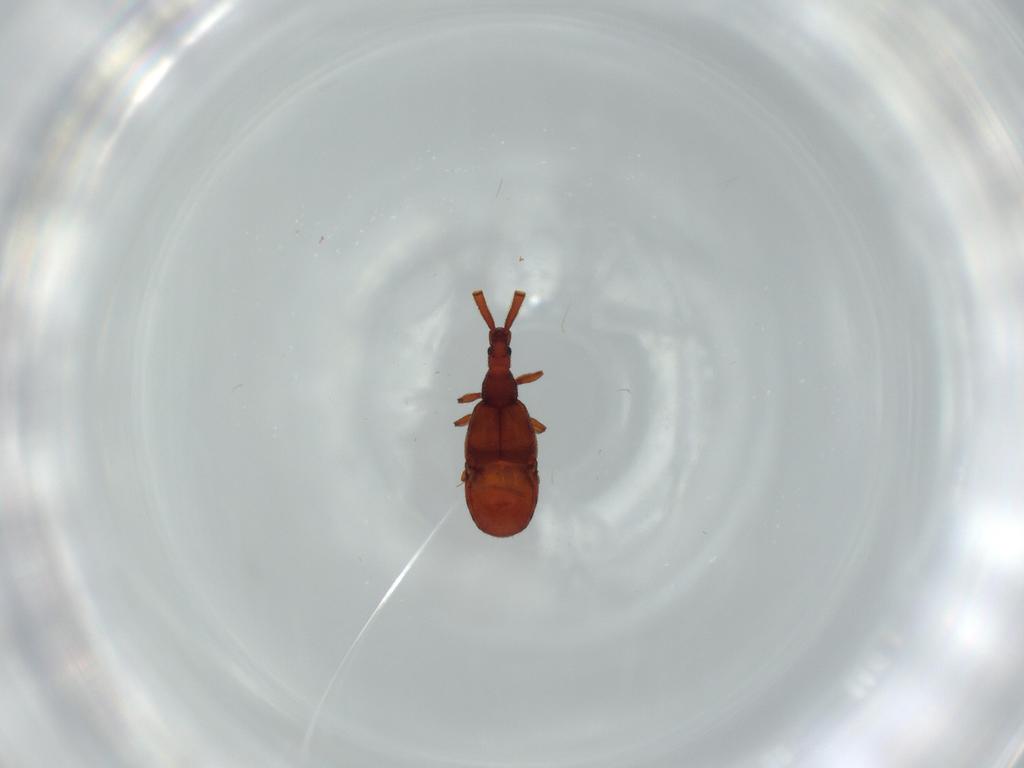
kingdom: Animalia
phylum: Arthropoda
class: Insecta
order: Coleoptera
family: Staphylinidae
